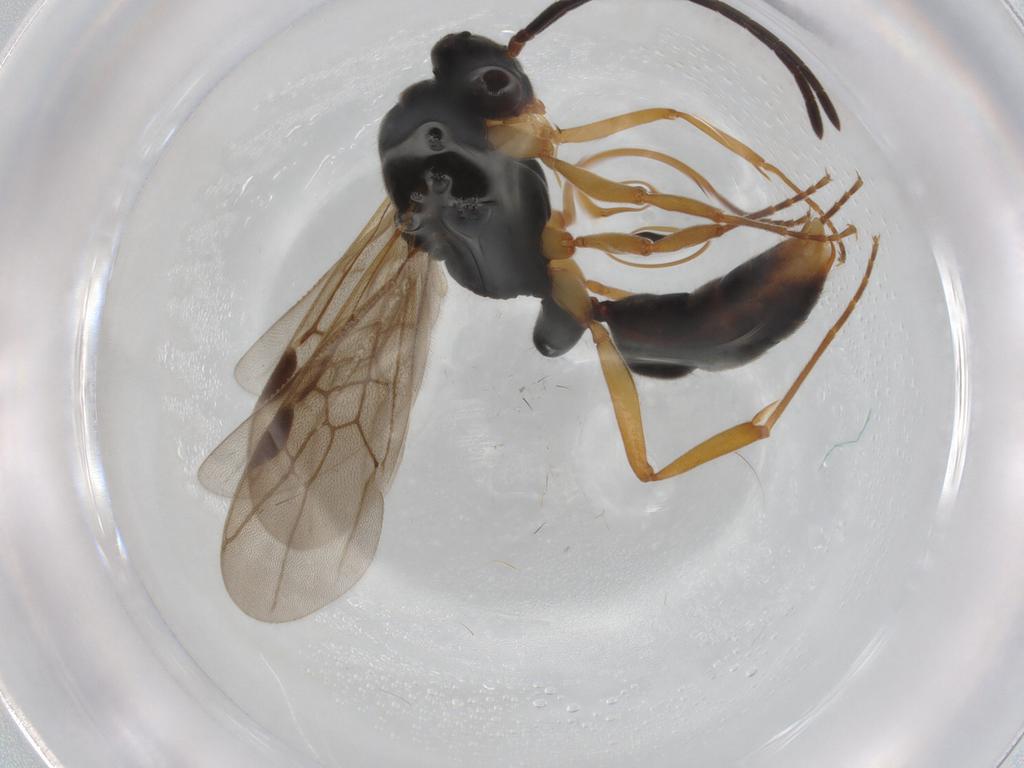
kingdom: Animalia
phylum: Arthropoda
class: Insecta
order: Hymenoptera
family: Formicidae
